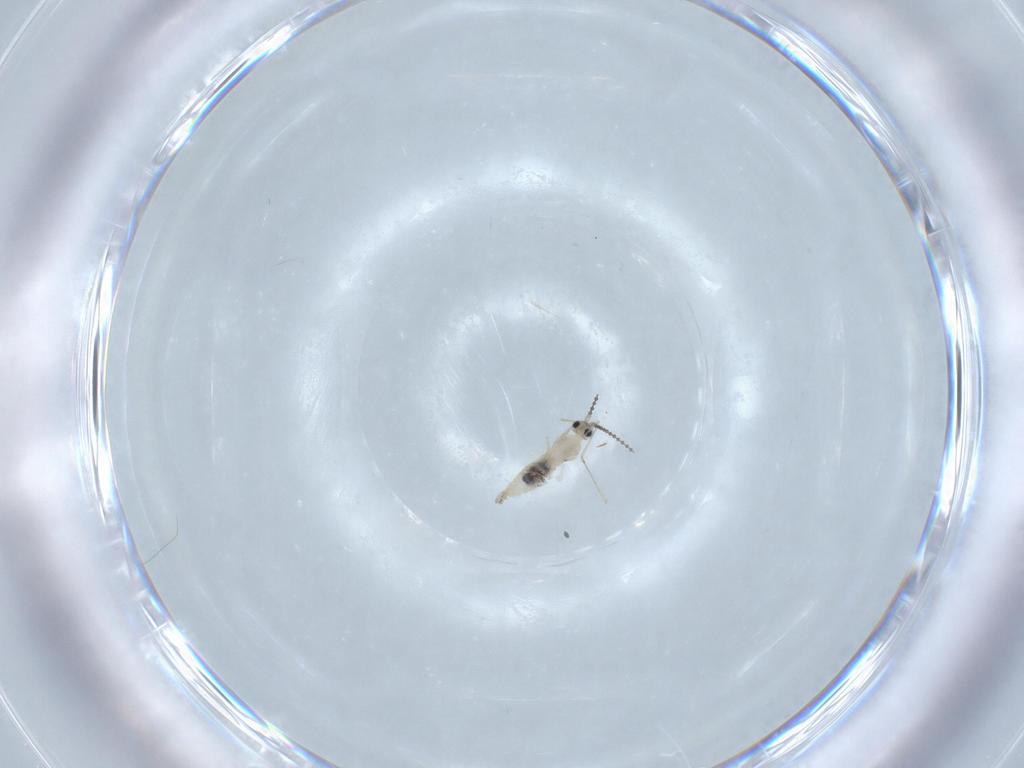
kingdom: Animalia
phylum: Arthropoda
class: Insecta
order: Diptera
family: Cecidomyiidae
